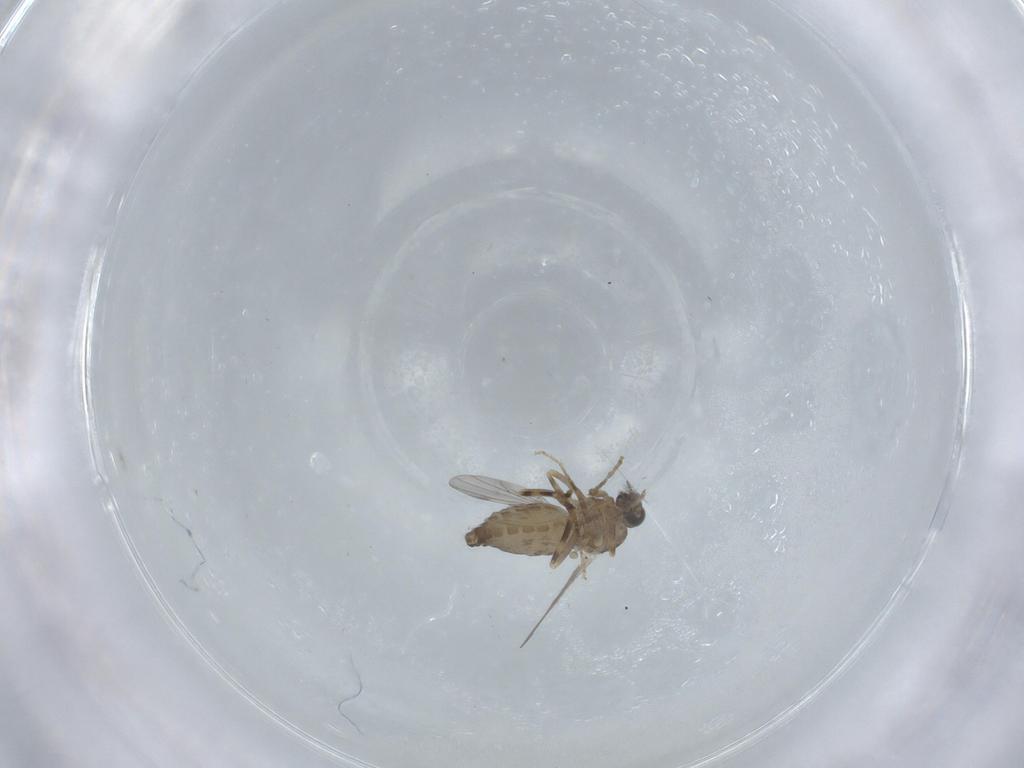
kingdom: Animalia
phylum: Arthropoda
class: Insecta
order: Diptera
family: Ceratopogonidae
